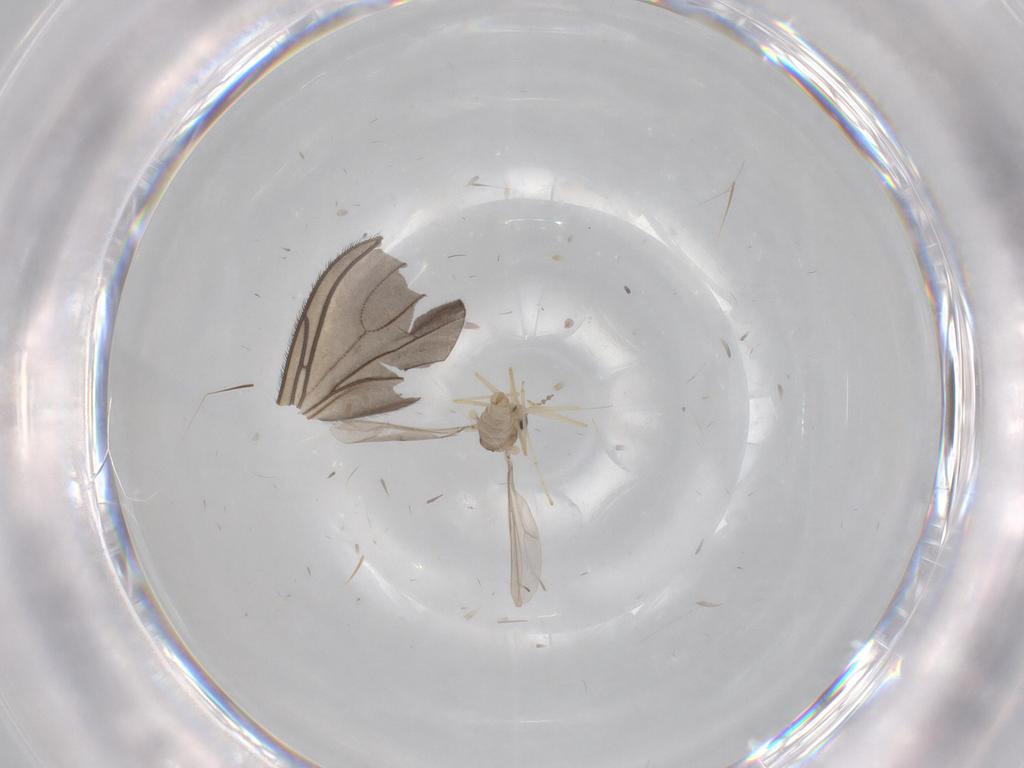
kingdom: Animalia
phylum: Arthropoda
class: Insecta
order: Diptera
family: Cecidomyiidae
